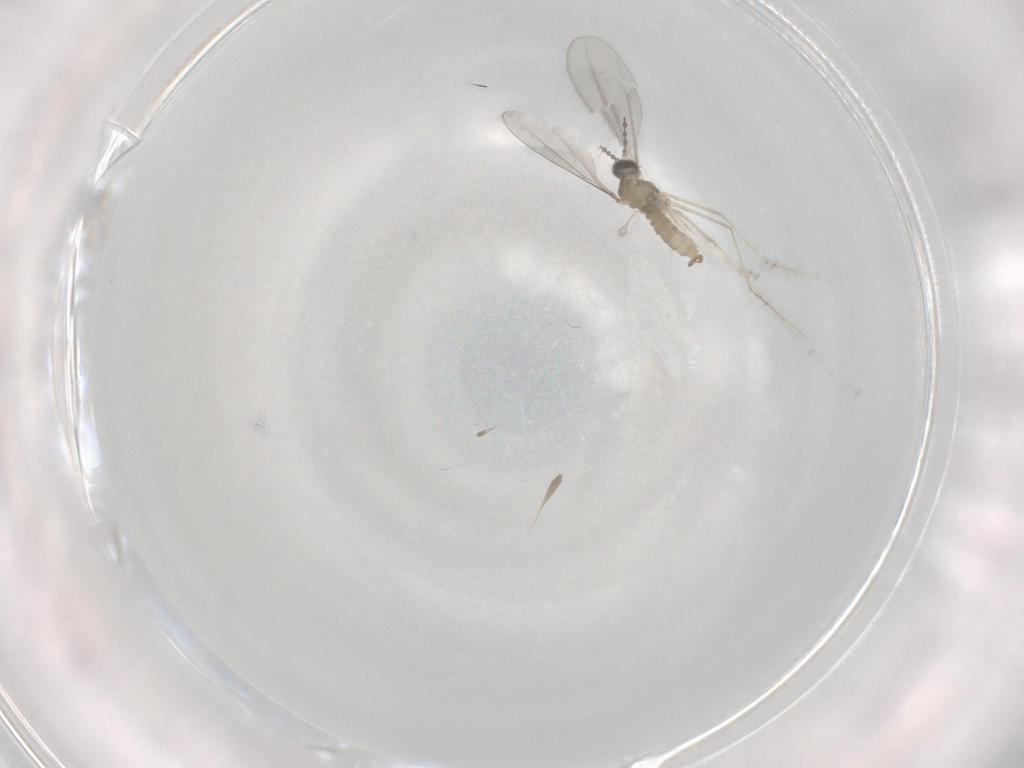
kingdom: Animalia
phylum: Arthropoda
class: Insecta
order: Diptera
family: Cecidomyiidae
